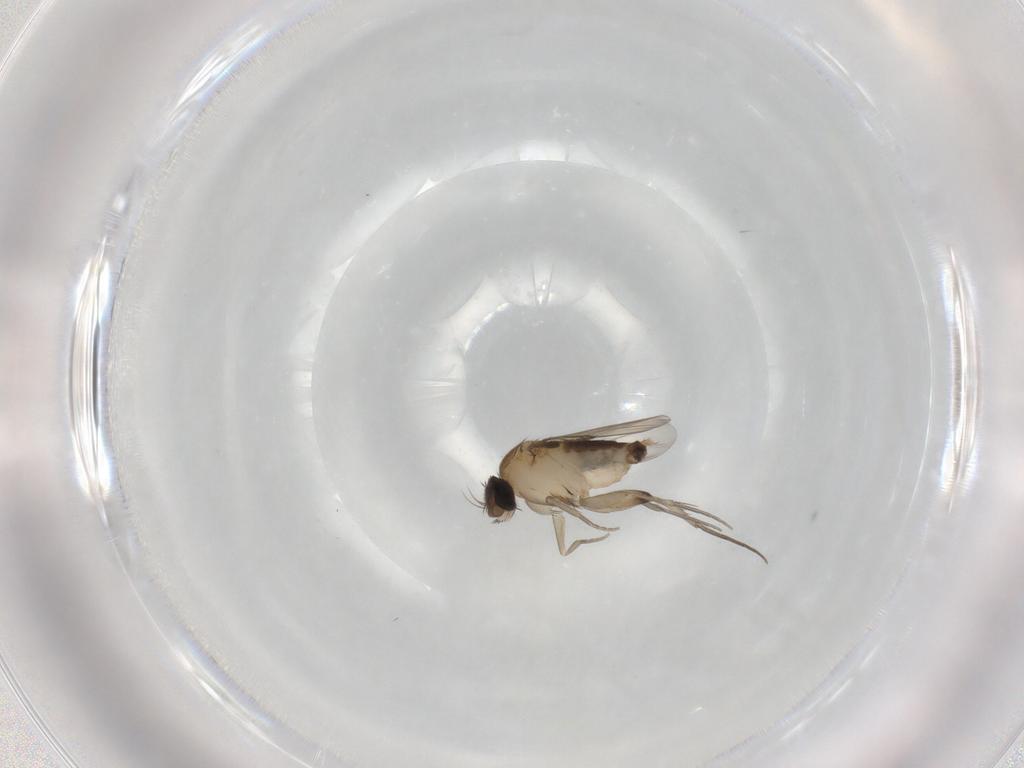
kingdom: Animalia
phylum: Arthropoda
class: Insecta
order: Diptera
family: Phoridae
